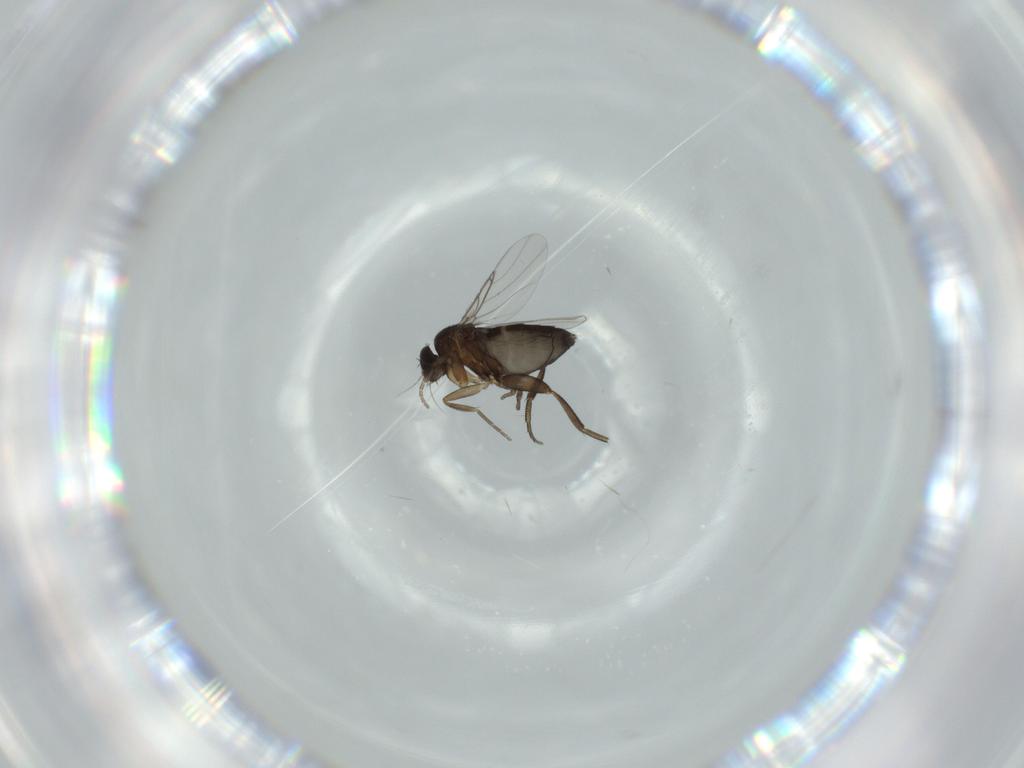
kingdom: Animalia
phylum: Arthropoda
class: Insecta
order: Diptera
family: Phoridae
